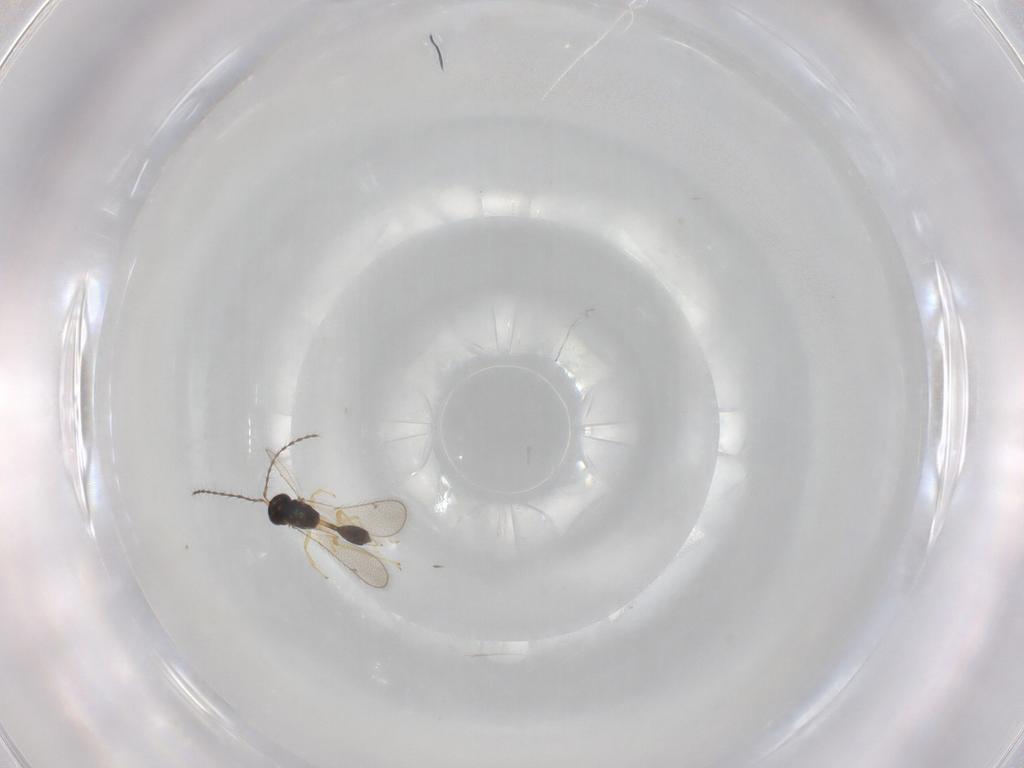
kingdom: Animalia
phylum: Arthropoda
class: Insecta
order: Hymenoptera
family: Diparidae
